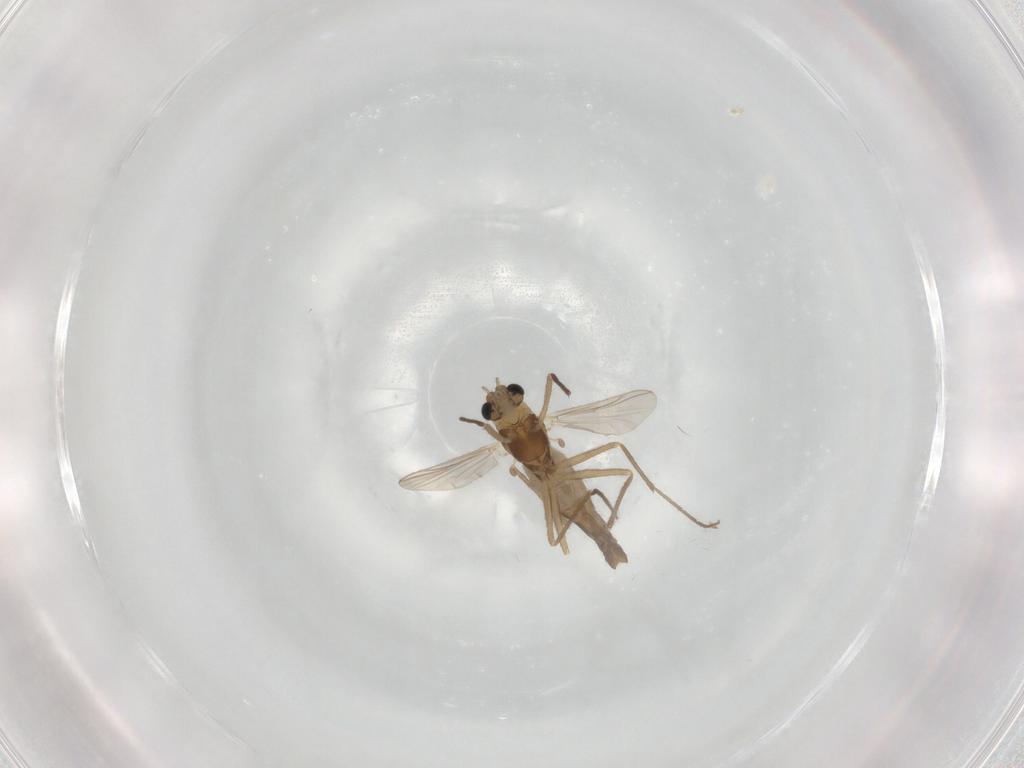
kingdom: Animalia
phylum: Arthropoda
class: Insecta
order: Diptera
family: Chironomidae
